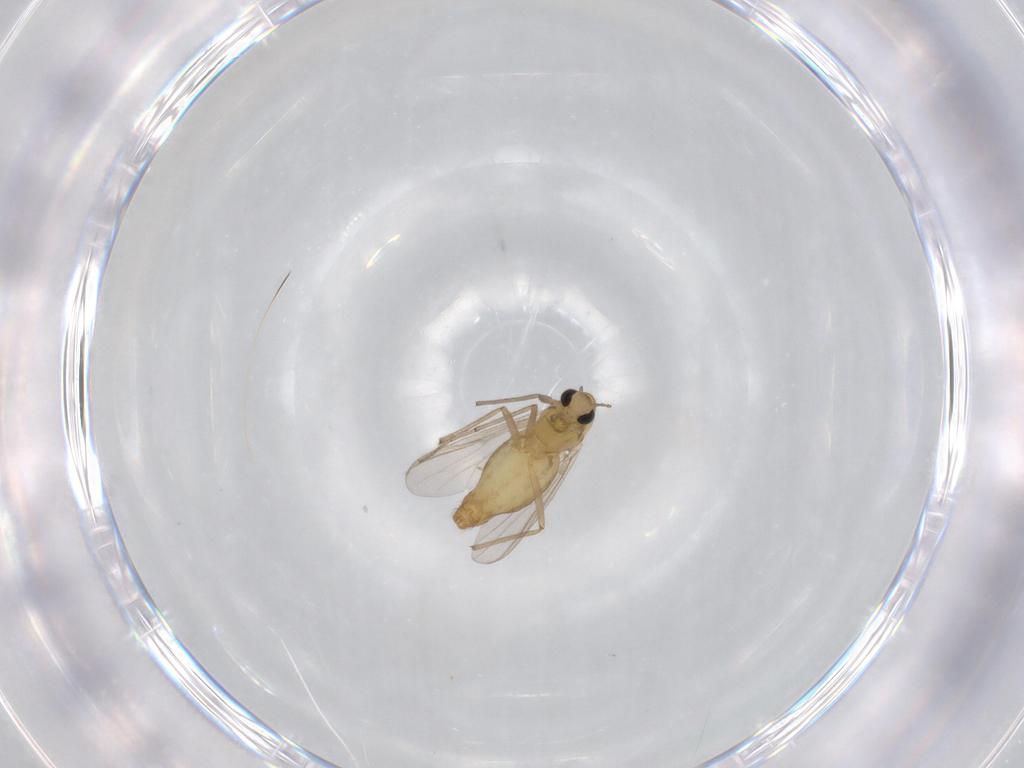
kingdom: Animalia
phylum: Arthropoda
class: Insecta
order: Diptera
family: Chironomidae
